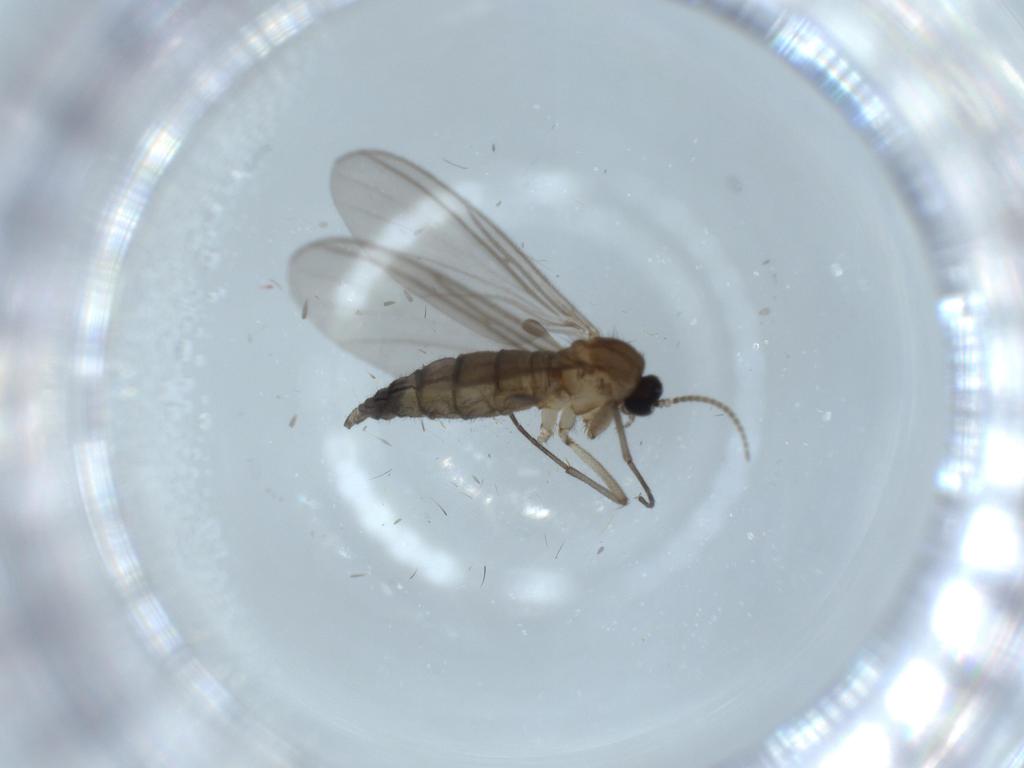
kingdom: Animalia
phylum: Arthropoda
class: Insecta
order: Diptera
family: Sciaridae
